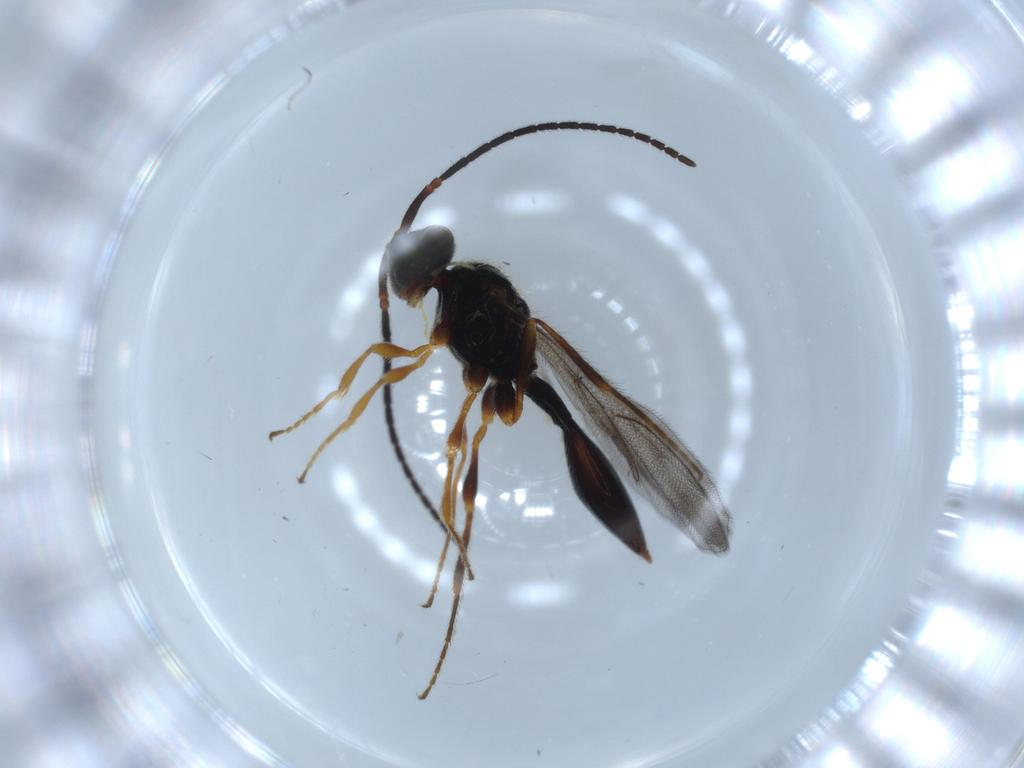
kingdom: Animalia
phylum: Arthropoda
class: Insecta
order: Hymenoptera
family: Diapriidae
